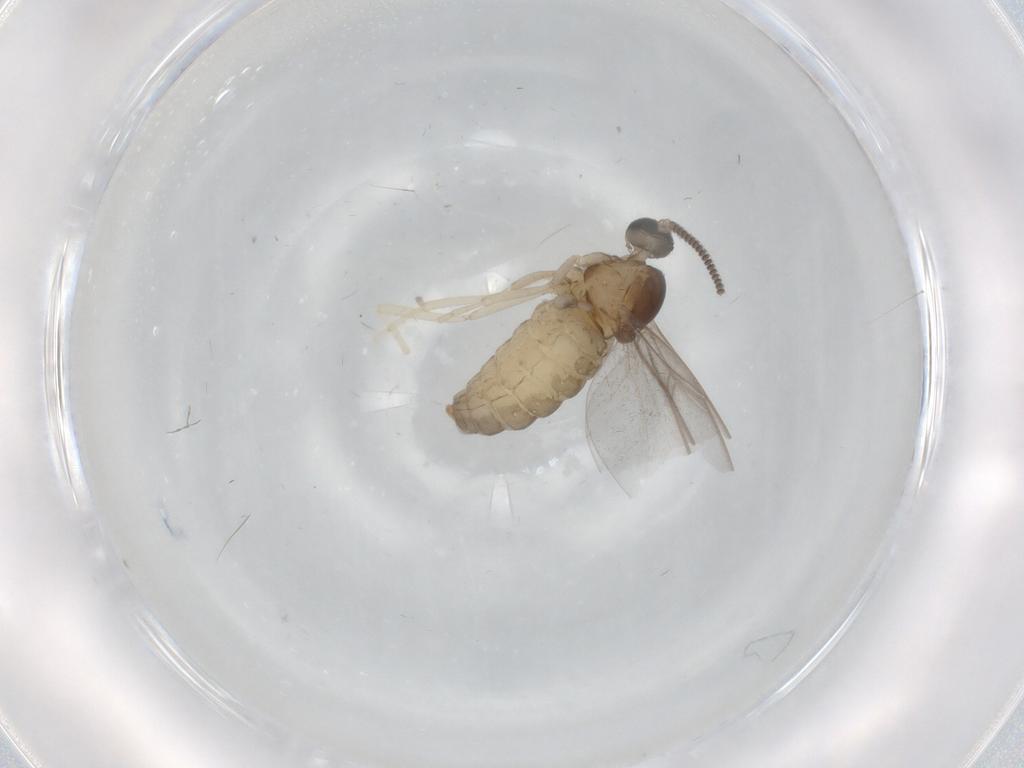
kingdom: Animalia
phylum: Arthropoda
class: Insecta
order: Diptera
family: Cecidomyiidae
